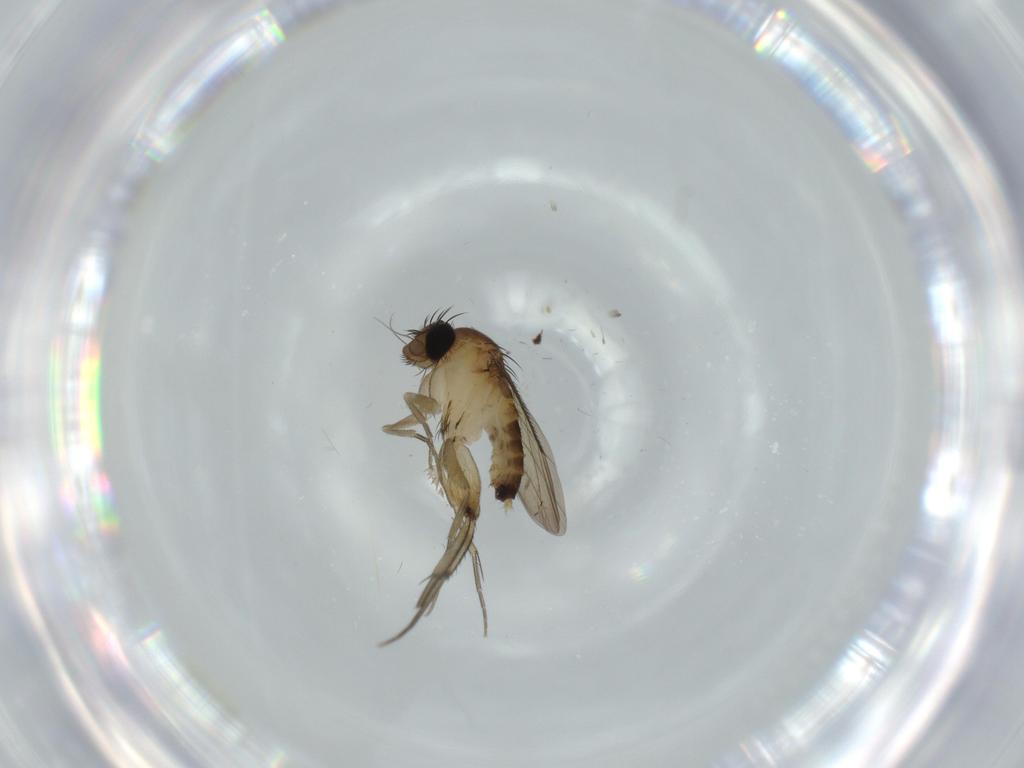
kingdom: Animalia
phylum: Arthropoda
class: Insecta
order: Diptera
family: Phoridae
